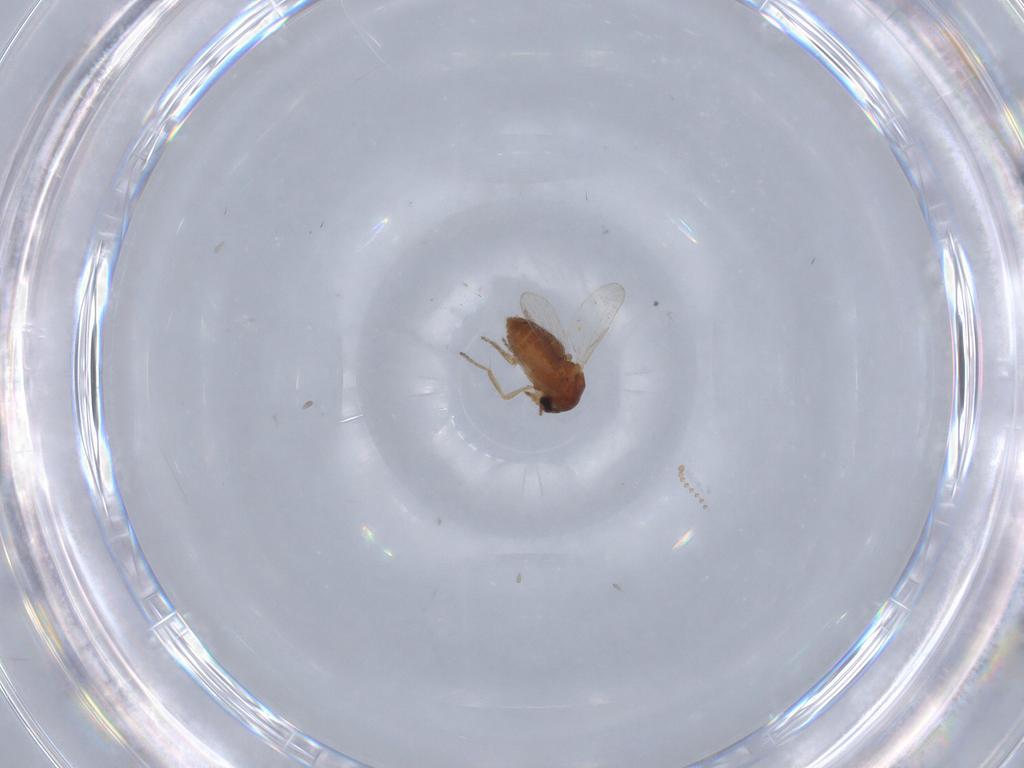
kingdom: Animalia
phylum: Arthropoda
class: Insecta
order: Diptera
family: Ceratopogonidae
